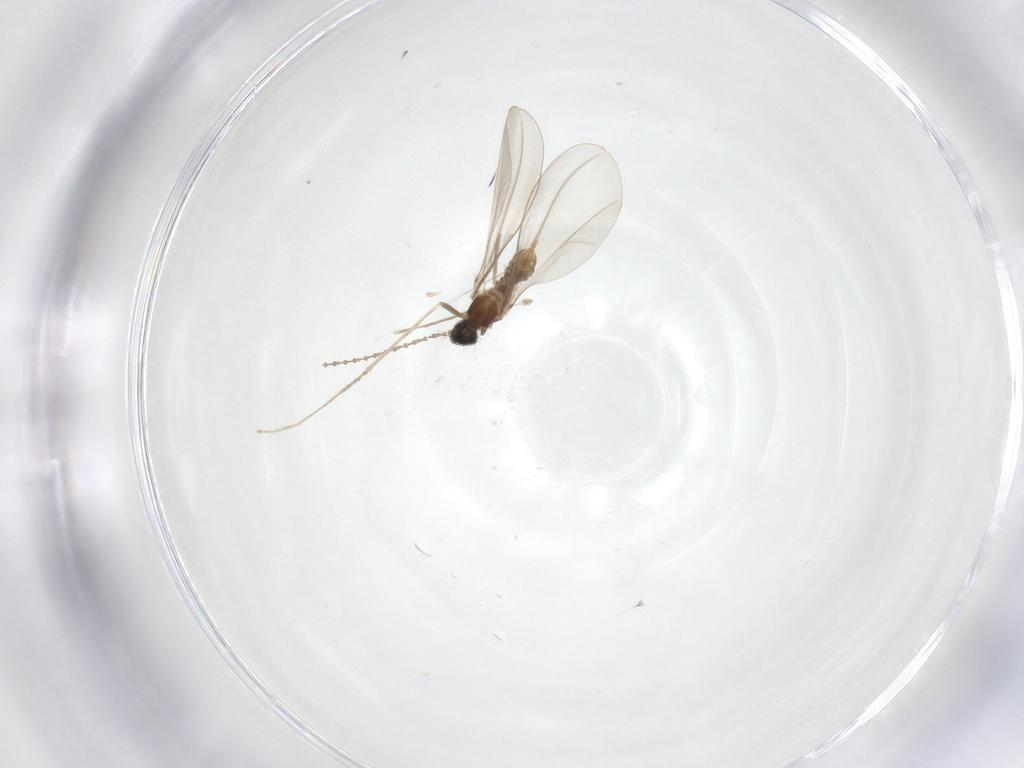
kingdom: Animalia
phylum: Arthropoda
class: Insecta
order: Diptera
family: Cecidomyiidae
